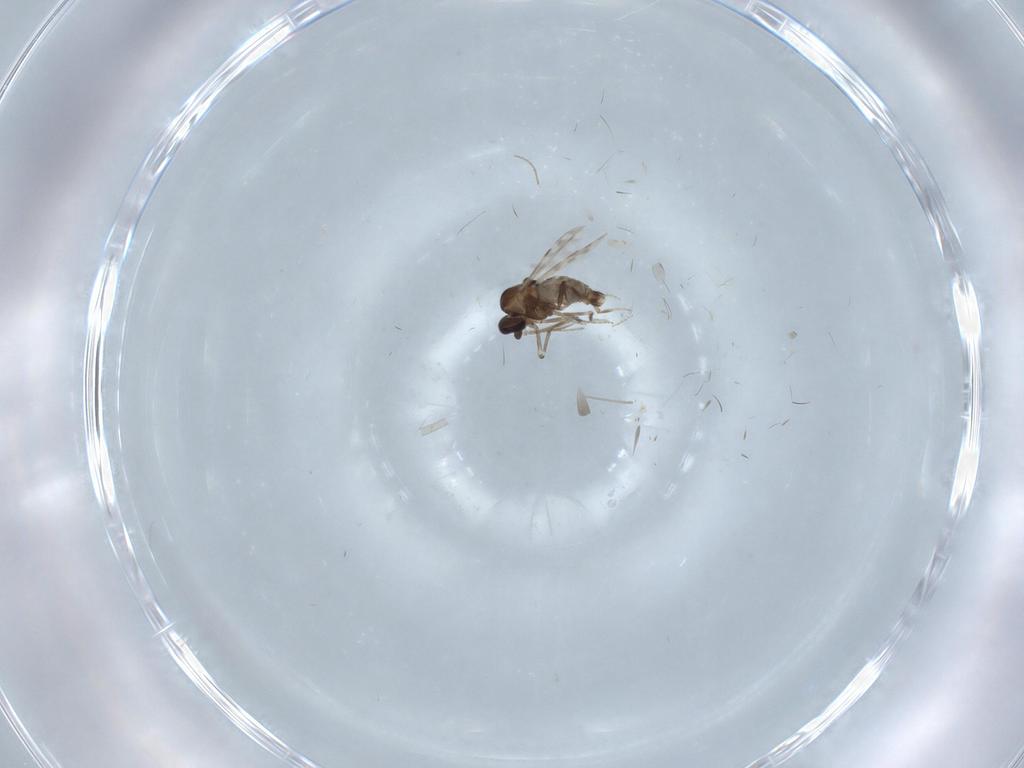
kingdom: Animalia
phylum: Arthropoda
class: Insecta
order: Diptera
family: Ceratopogonidae
